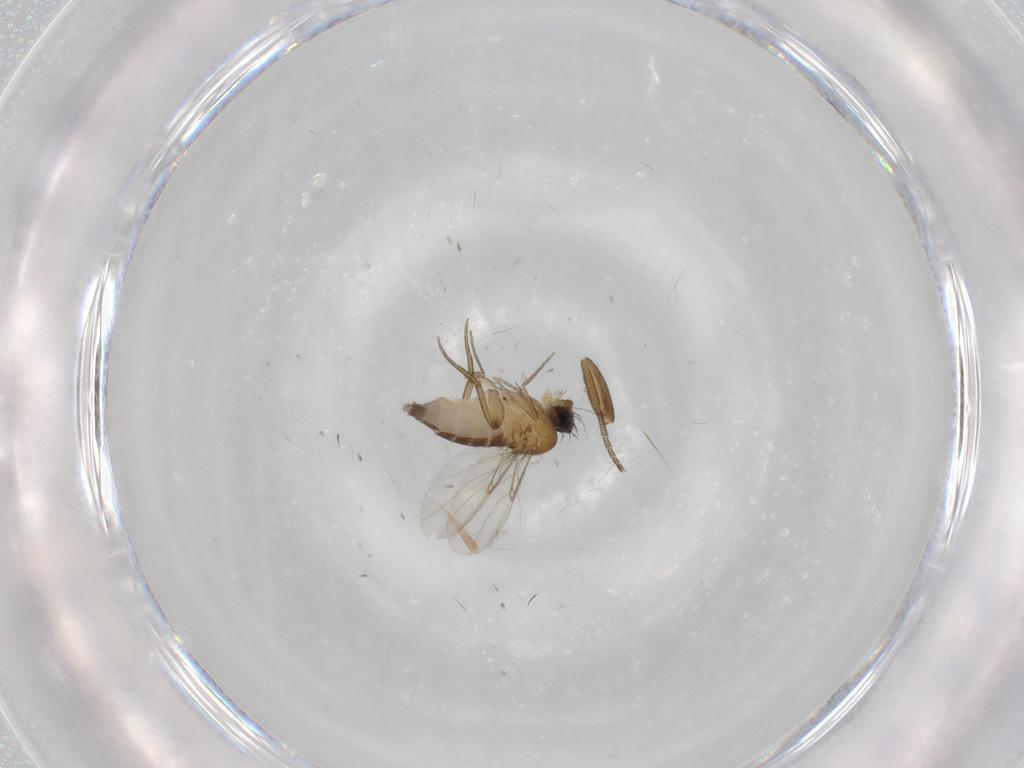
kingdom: Animalia
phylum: Arthropoda
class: Insecta
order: Diptera
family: Phoridae
